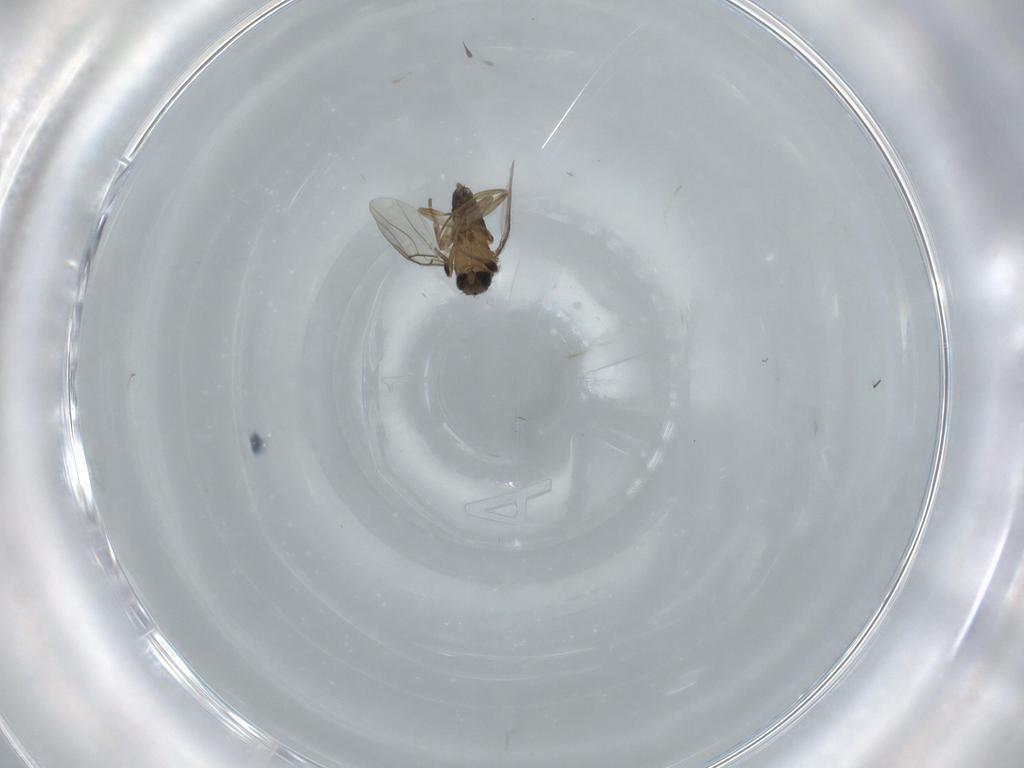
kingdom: Animalia
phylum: Arthropoda
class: Insecta
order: Diptera
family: Phoridae
